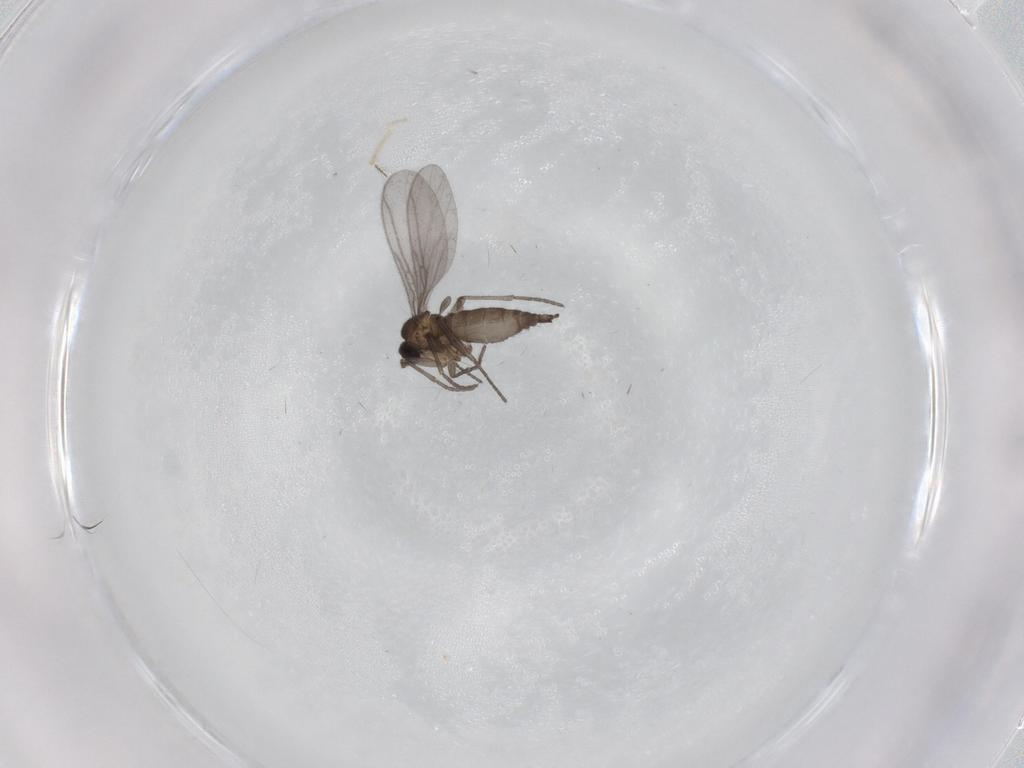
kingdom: Animalia
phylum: Arthropoda
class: Insecta
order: Diptera
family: Sciaridae
